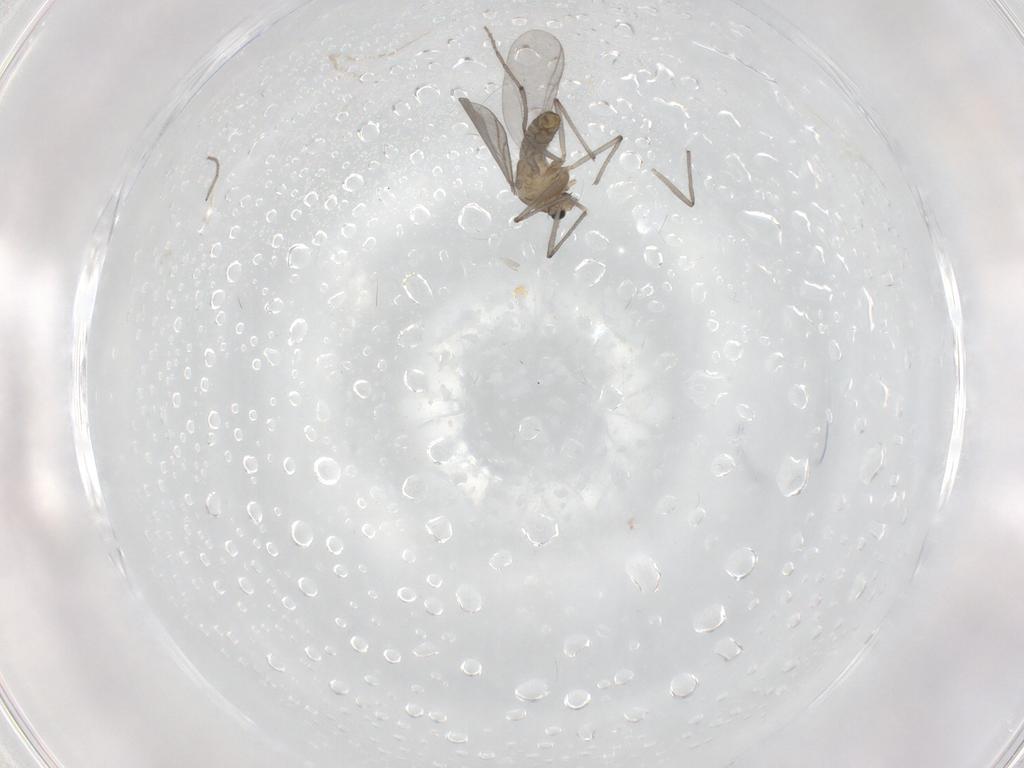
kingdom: Animalia
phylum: Arthropoda
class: Insecta
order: Diptera
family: Chironomidae
